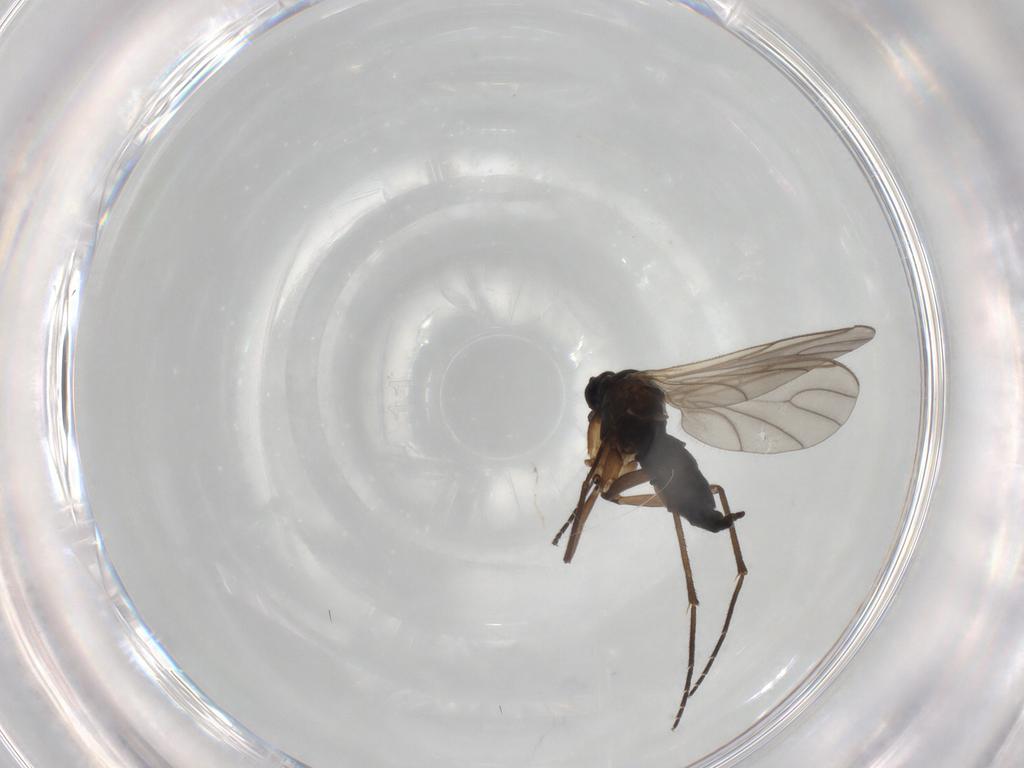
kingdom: Animalia
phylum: Arthropoda
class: Insecta
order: Diptera
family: Sciaridae
